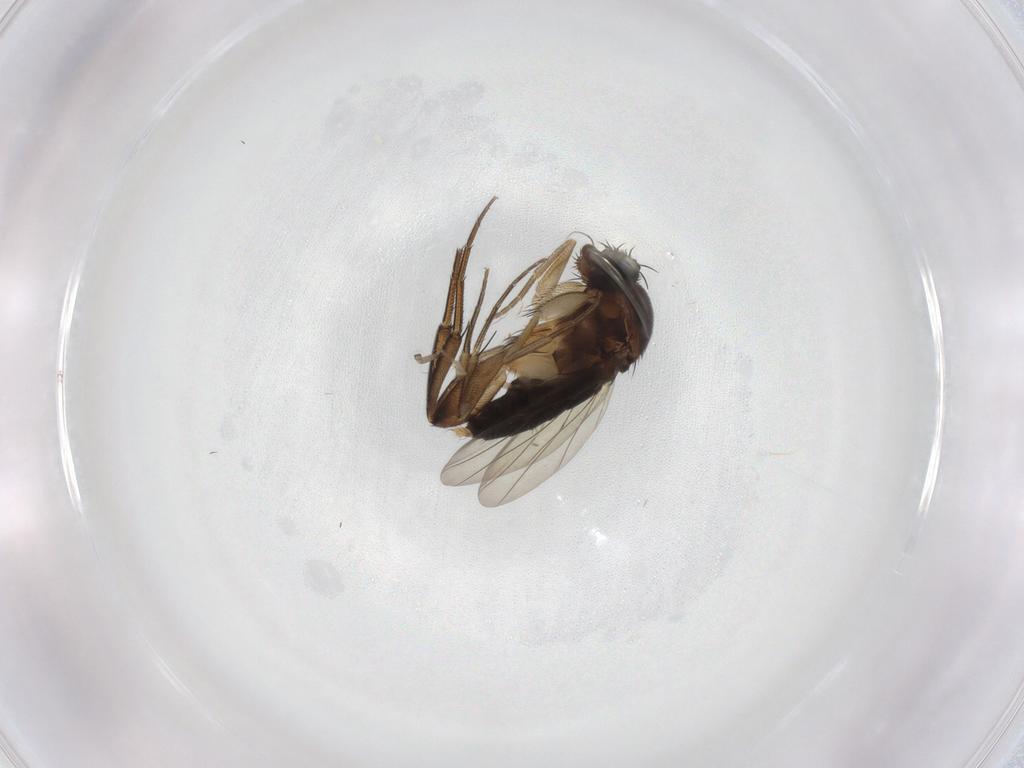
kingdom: Animalia
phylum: Arthropoda
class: Insecta
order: Diptera
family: Phoridae
